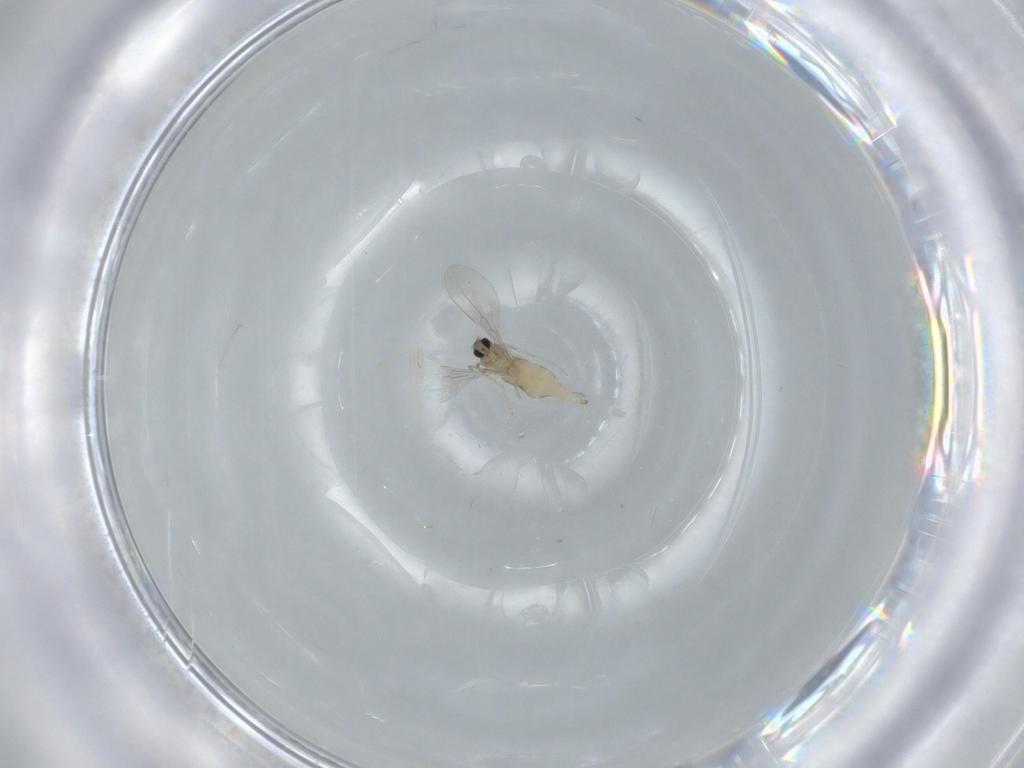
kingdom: Animalia
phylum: Arthropoda
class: Insecta
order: Diptera
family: Cecidomyiidae
